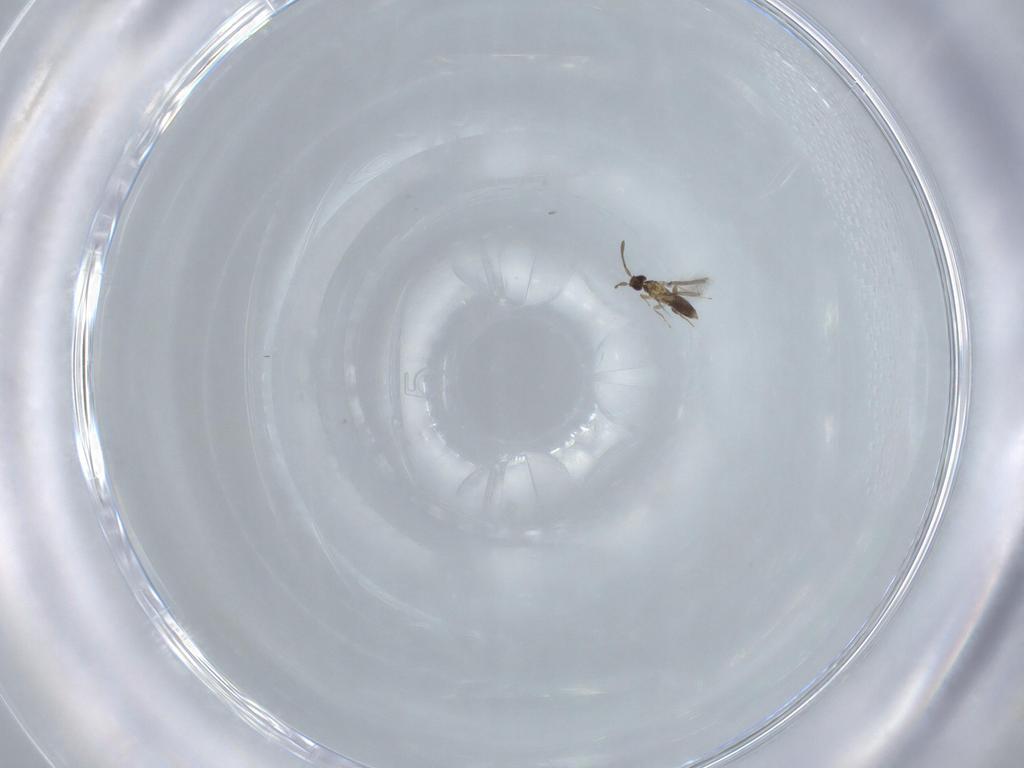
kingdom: Animalia
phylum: Arthropoda
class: Insecta
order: Hymenoptera
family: Mymaridae
